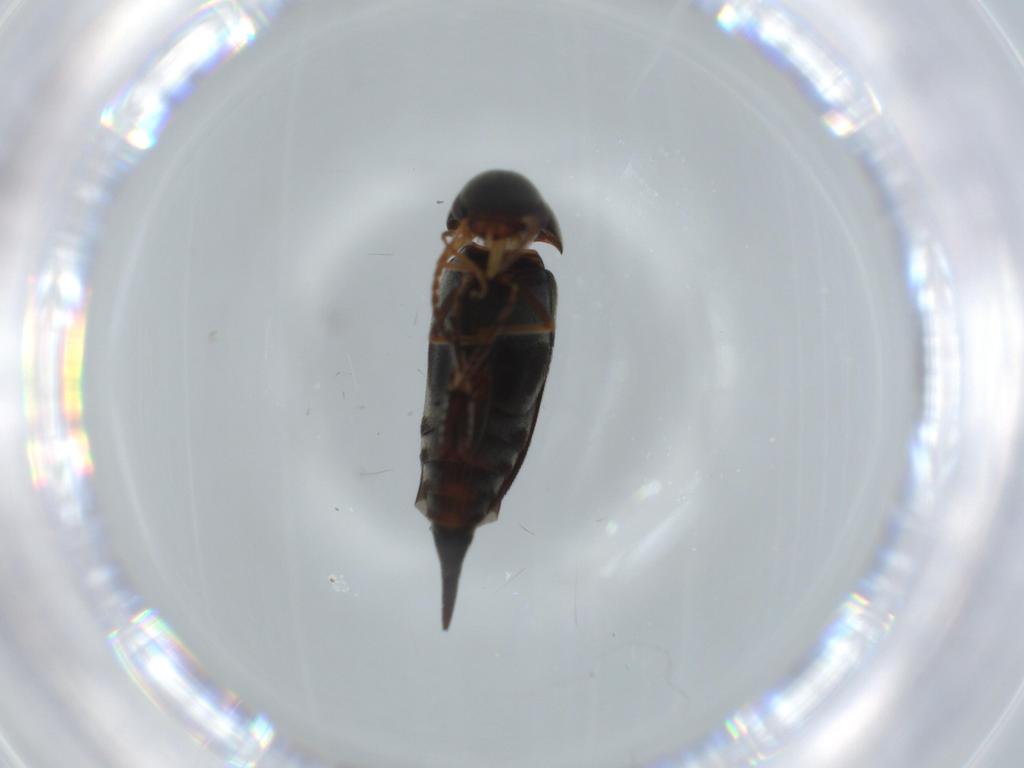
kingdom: Animalia
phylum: Arthropoda
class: Insecta
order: Coleoptera
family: Mordellidae
